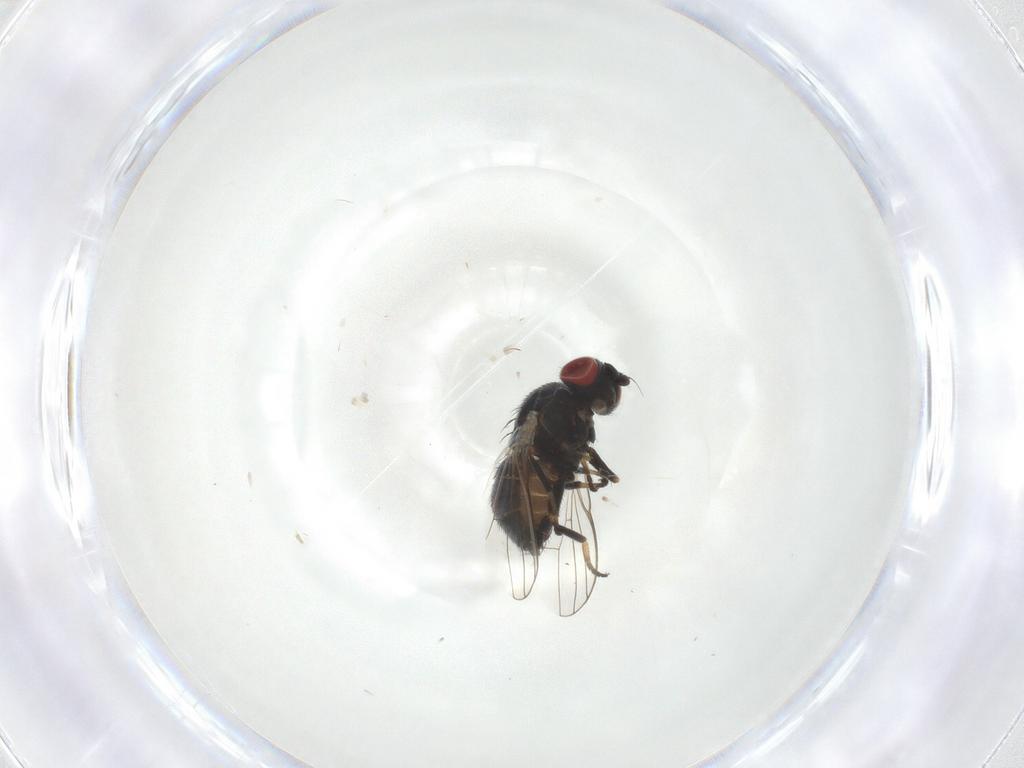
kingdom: Animalia
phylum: Arthropoda
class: Insecta
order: Diptera
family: Chamaemyiidae
